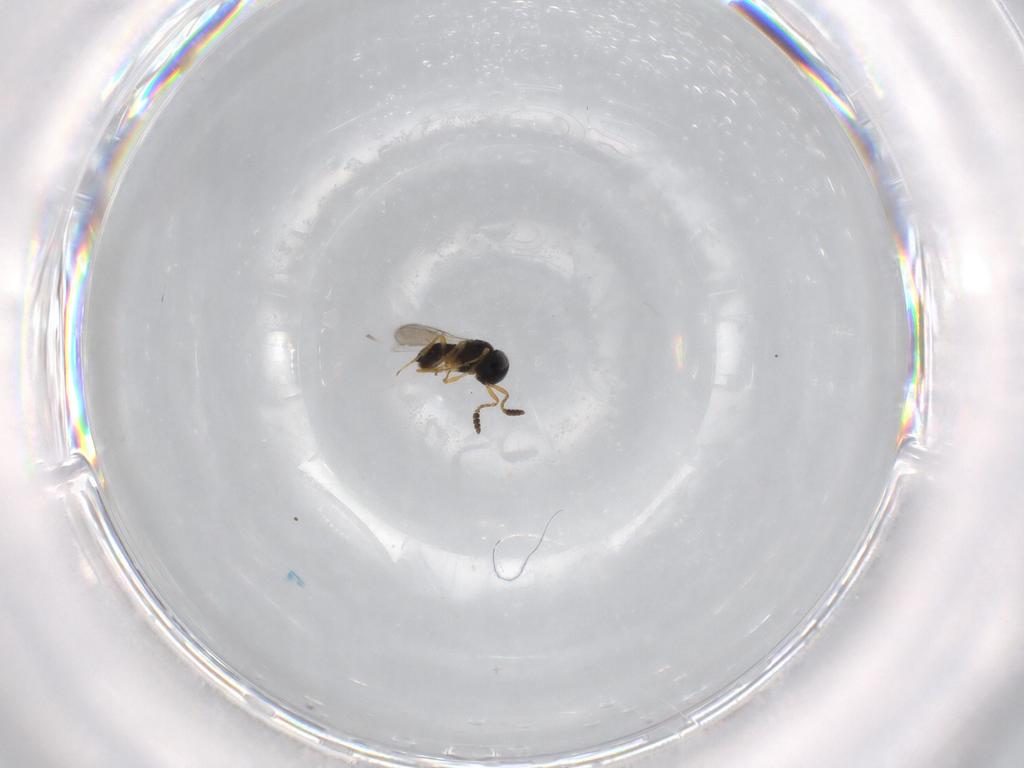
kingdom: Animalia
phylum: Arthropoda
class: Insecta
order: Hymenoptera
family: Scelionidae
